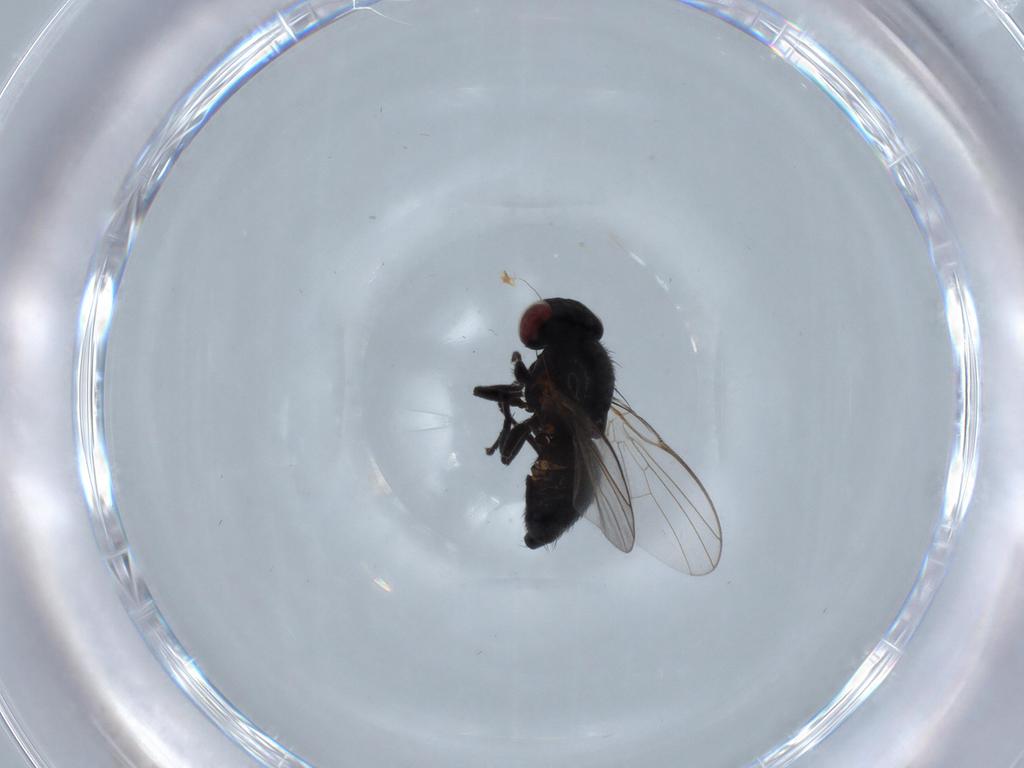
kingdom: Animalia
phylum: Arthropoda
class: Insecta
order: Diptera
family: Agromyzidae
